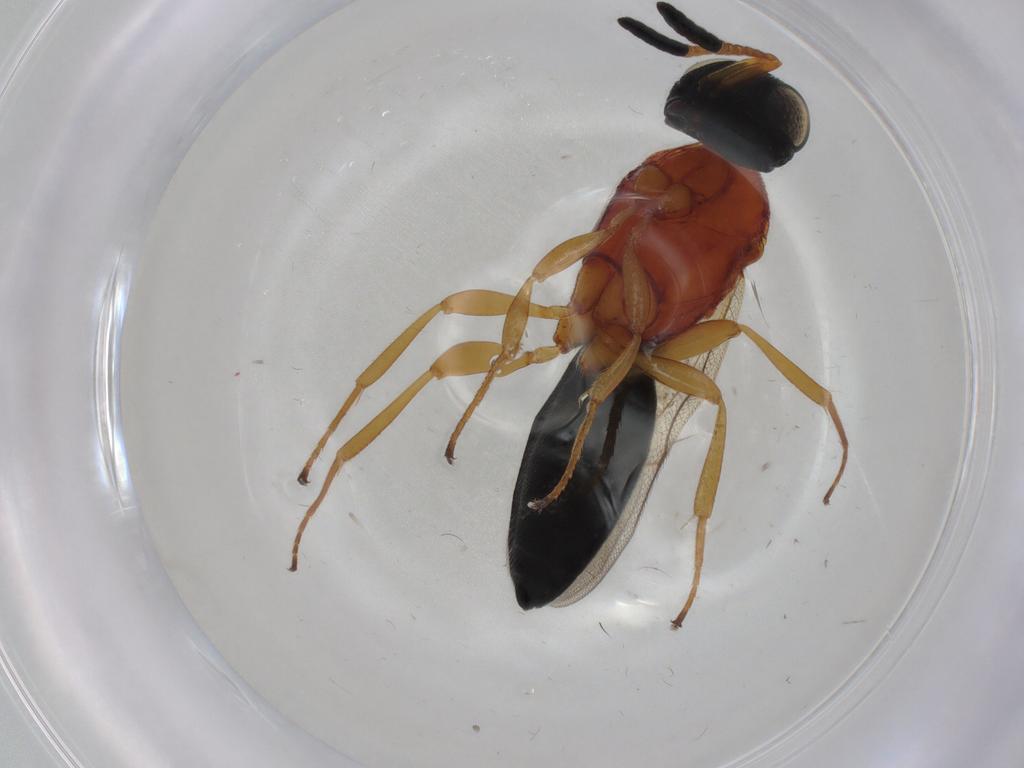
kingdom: Animalia
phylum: Arthropoda
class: Insecta
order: Hymenoptera
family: Scelionidae
